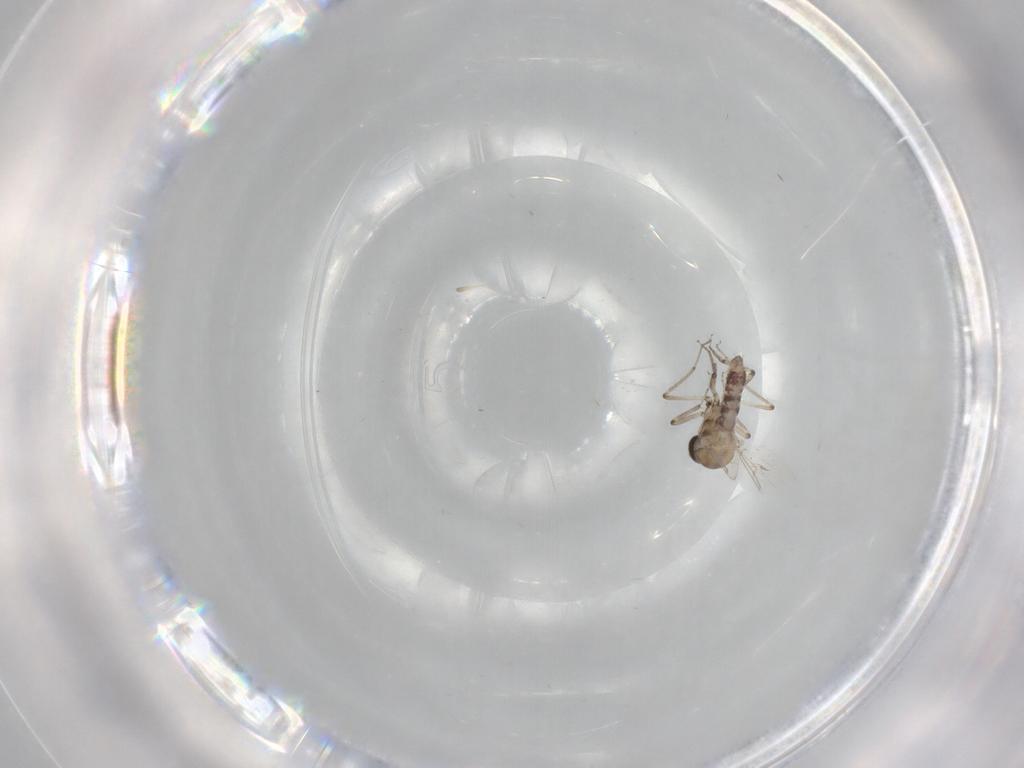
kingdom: Animalia
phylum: Arthropoda
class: Insecta
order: Diptera
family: Ceratopogonidae
